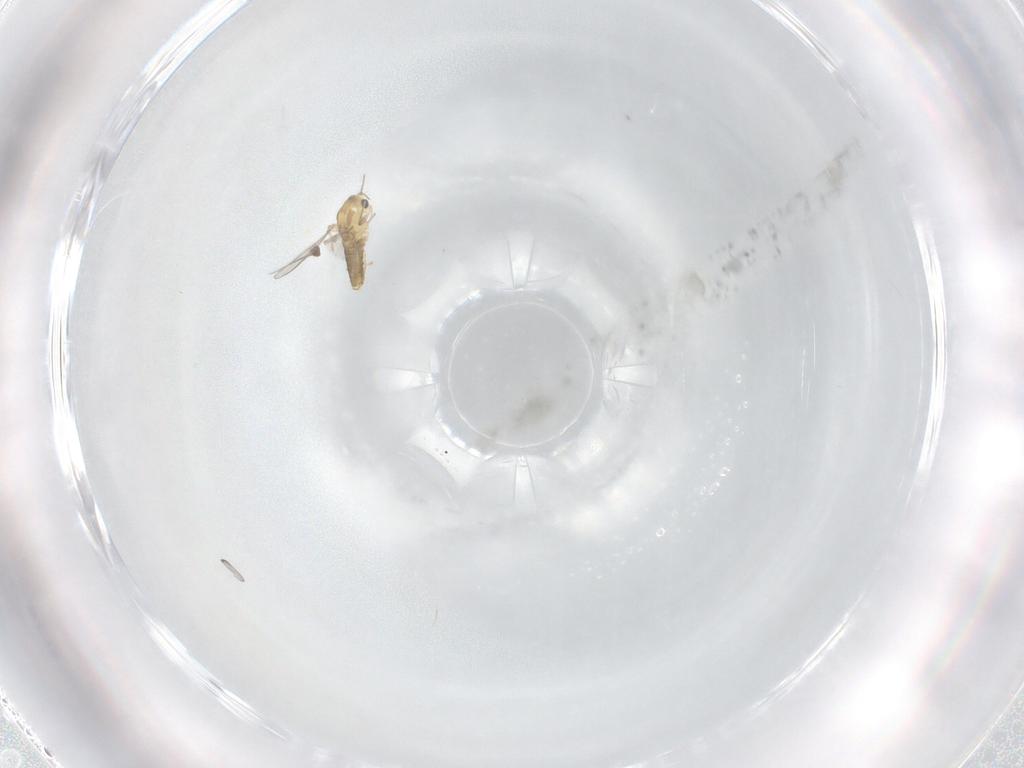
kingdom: Animalia
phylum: Arthropoda
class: Insecta
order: Diptera
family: Chironomidae
